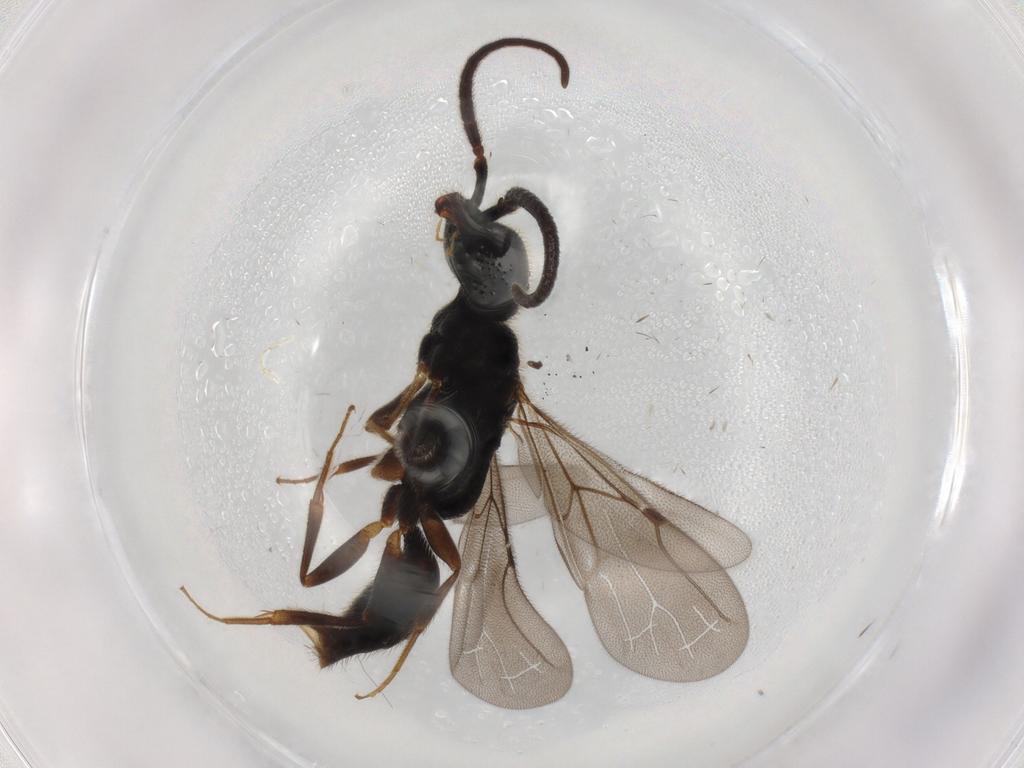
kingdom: Animalia
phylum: Arthropoda
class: Insecta
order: Hymenoptera
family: Bethylidae
